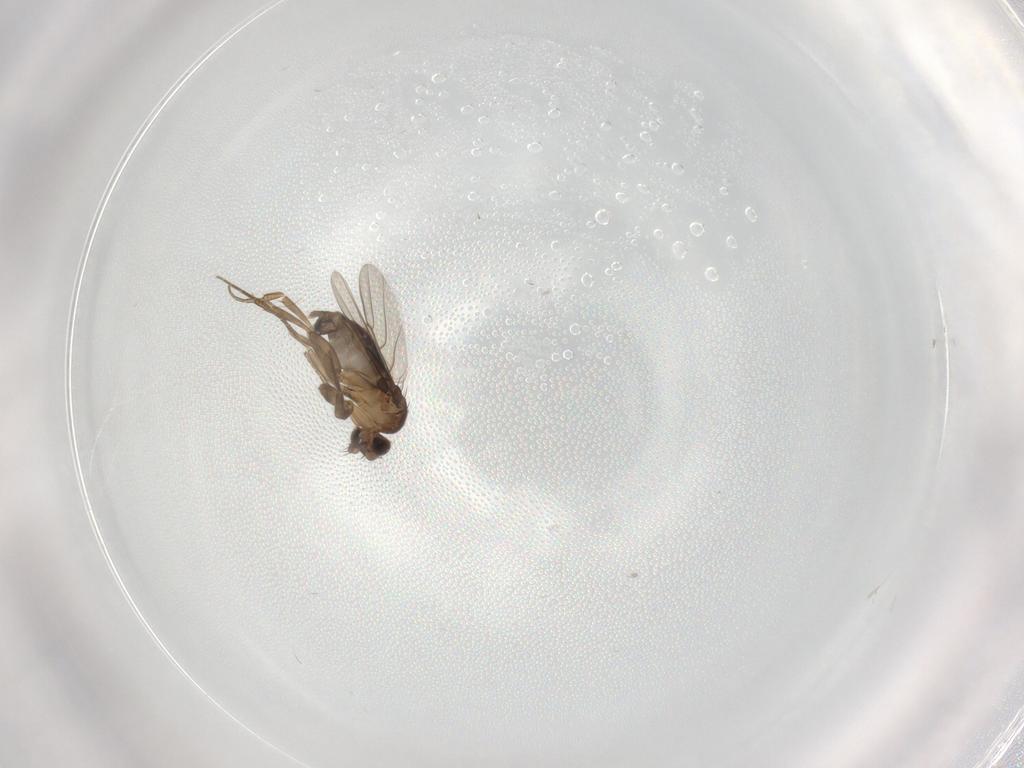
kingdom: Animalia
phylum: Arthropoda
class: Insecta
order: Diptera
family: Phoridae
